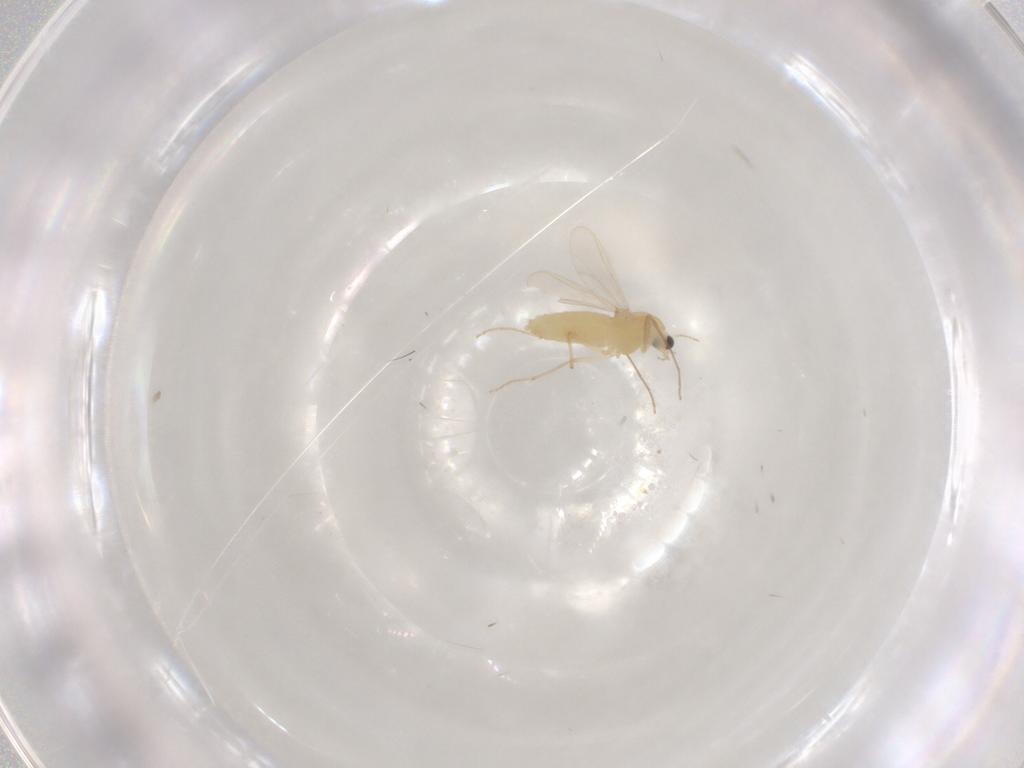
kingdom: Animalia
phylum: Arthropoda
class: Insecta
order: Diptera
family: Chironomidae
